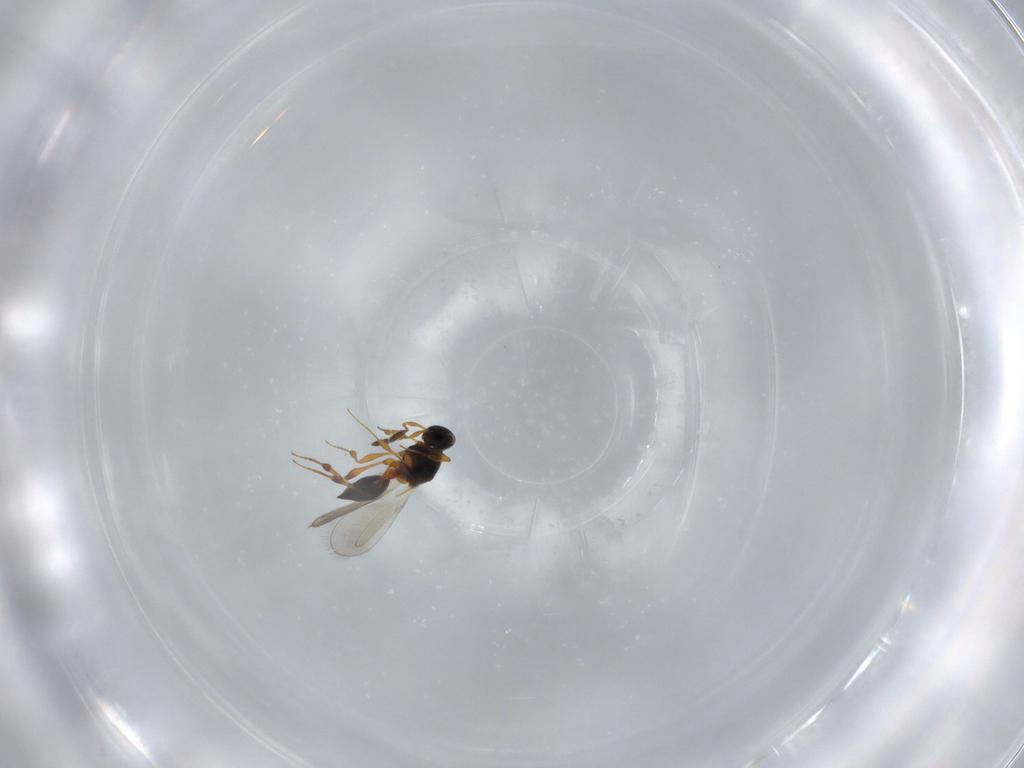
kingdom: Animalia
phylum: Arthropoda
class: Insecta
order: Hymenoptera
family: Platygastridae
